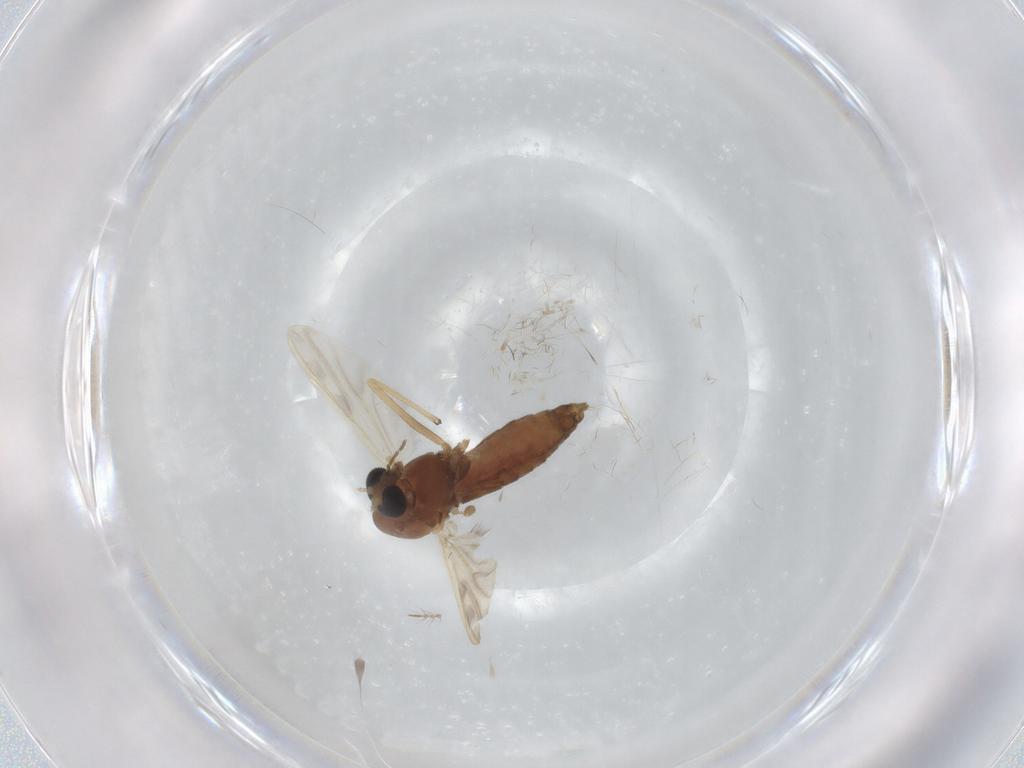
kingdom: Animalia
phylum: Arthropoda
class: Insecta
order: Diptera
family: Chironomidae
